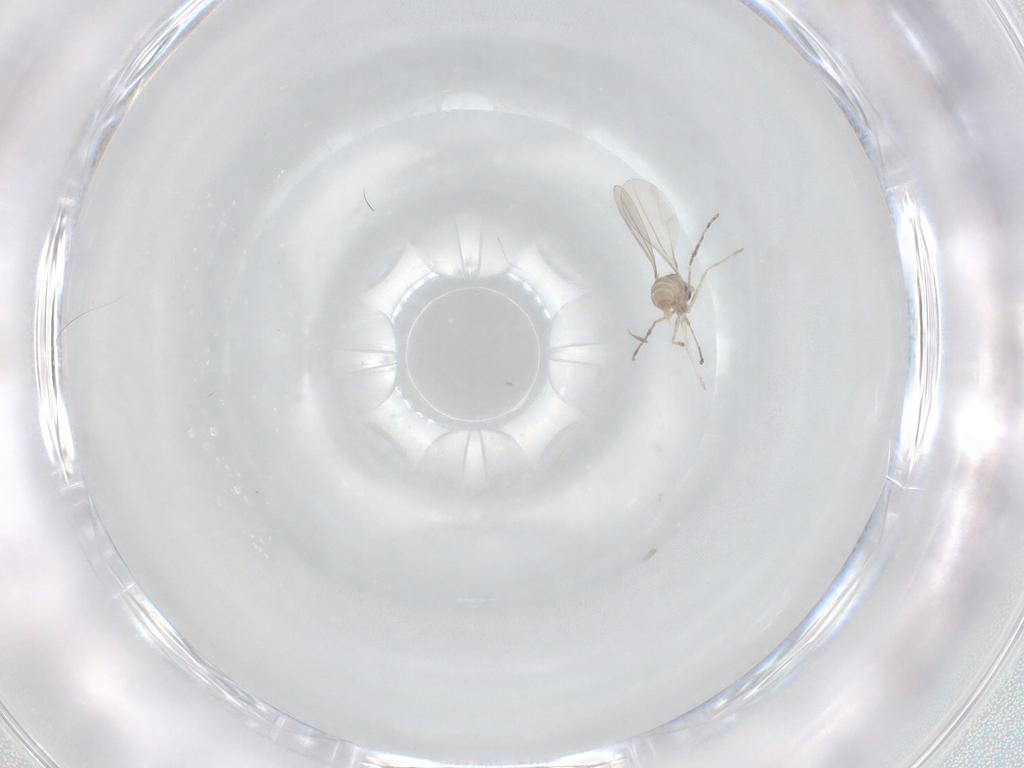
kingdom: Animalia
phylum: Arthropoda
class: Insecta
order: Diptera
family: Cecidomyiidae
